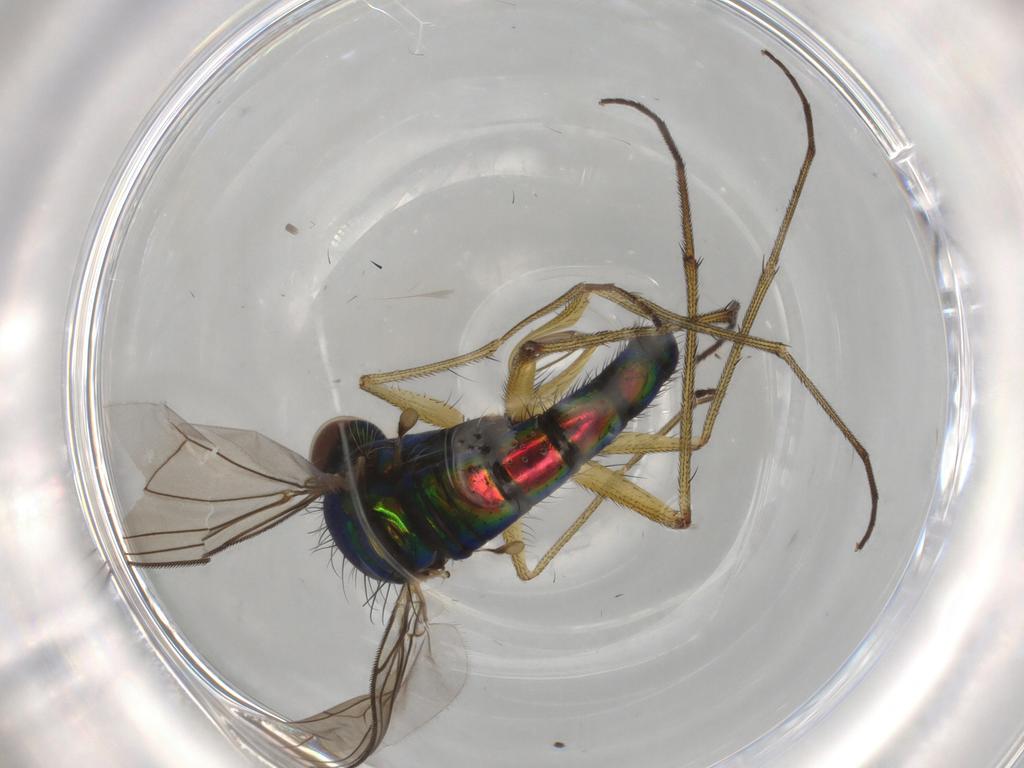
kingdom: Animalia
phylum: Arthropoda
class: Insecta
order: Diptera
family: Dolichopodidae
